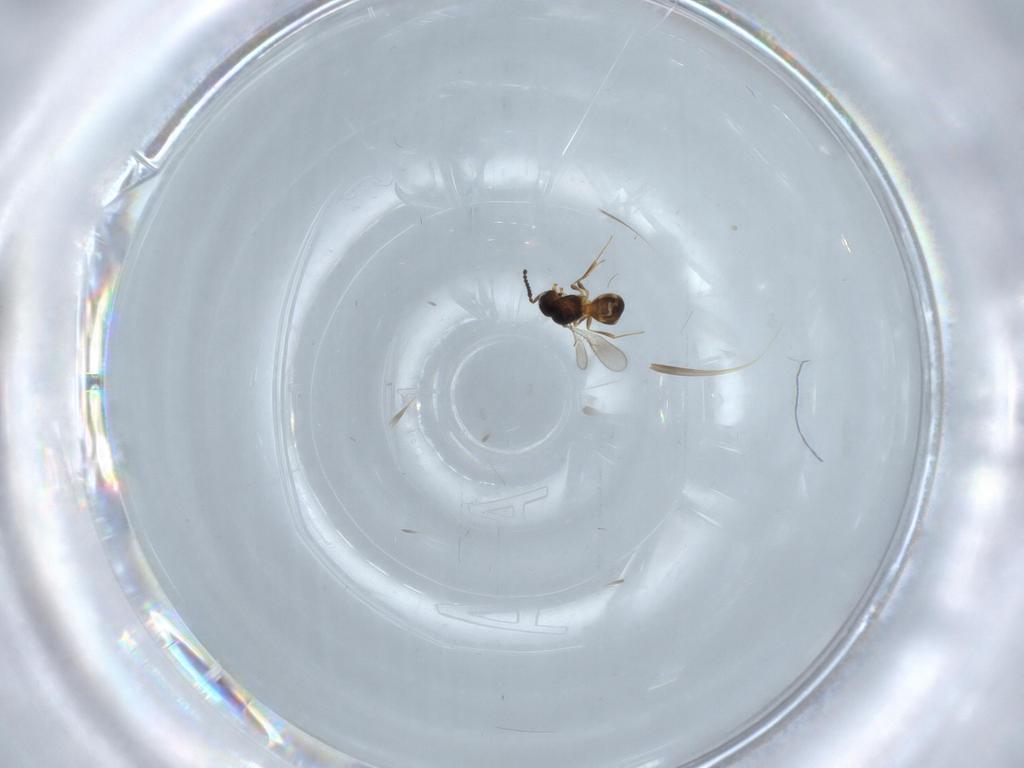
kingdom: Animalia
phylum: Arthropoda
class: Insecta
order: Hymenoptera
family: Scelionidae
